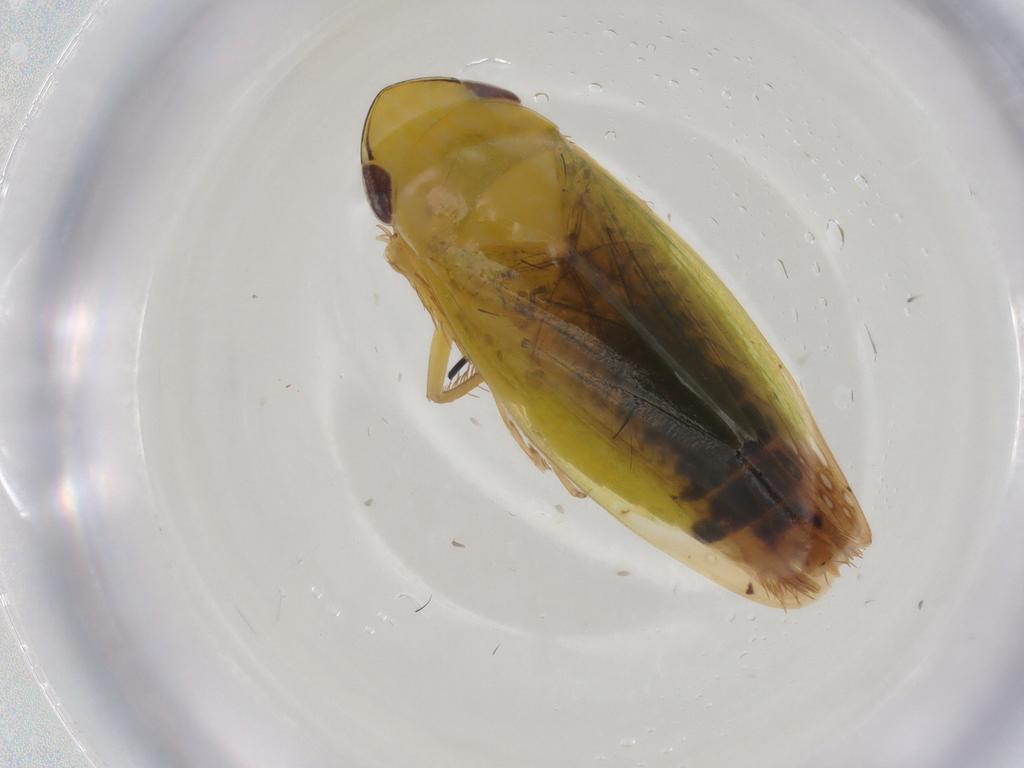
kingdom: Animalia
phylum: Arthropoda
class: Insecta
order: Hemiptera
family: Cicadellidae
